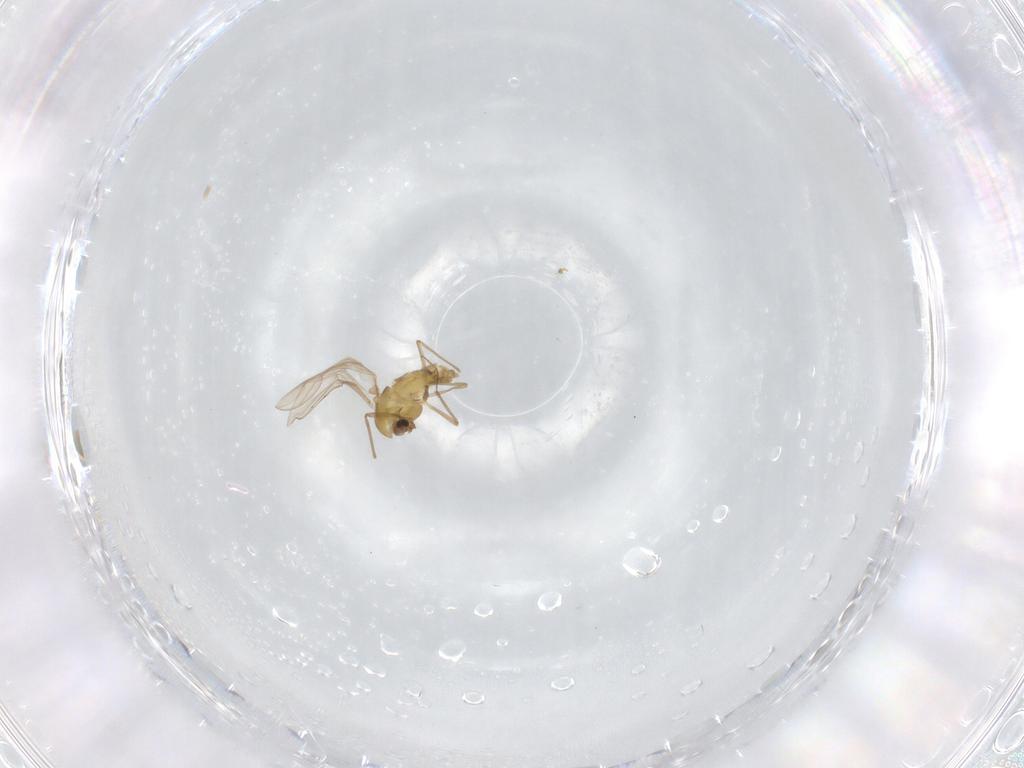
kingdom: Animalia
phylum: Arthropoda
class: Insecta
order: Diptera
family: Chironomidae
